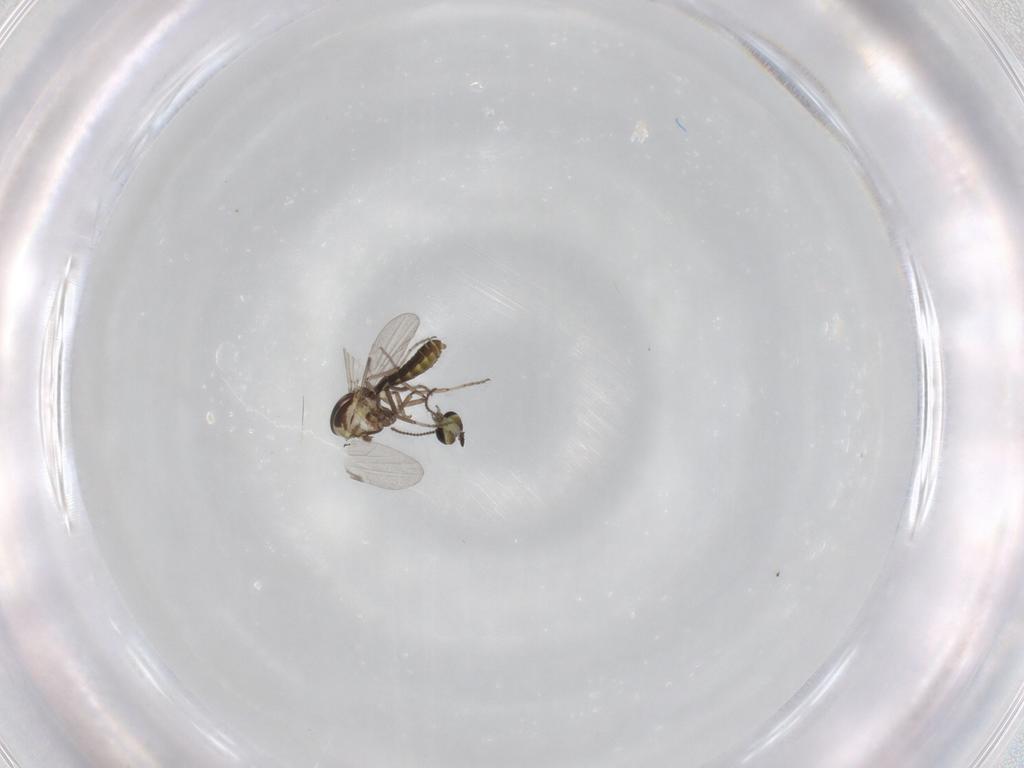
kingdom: Animalia
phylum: Arthropoda
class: Insecta
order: Diptera
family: Ceratopogonidae
